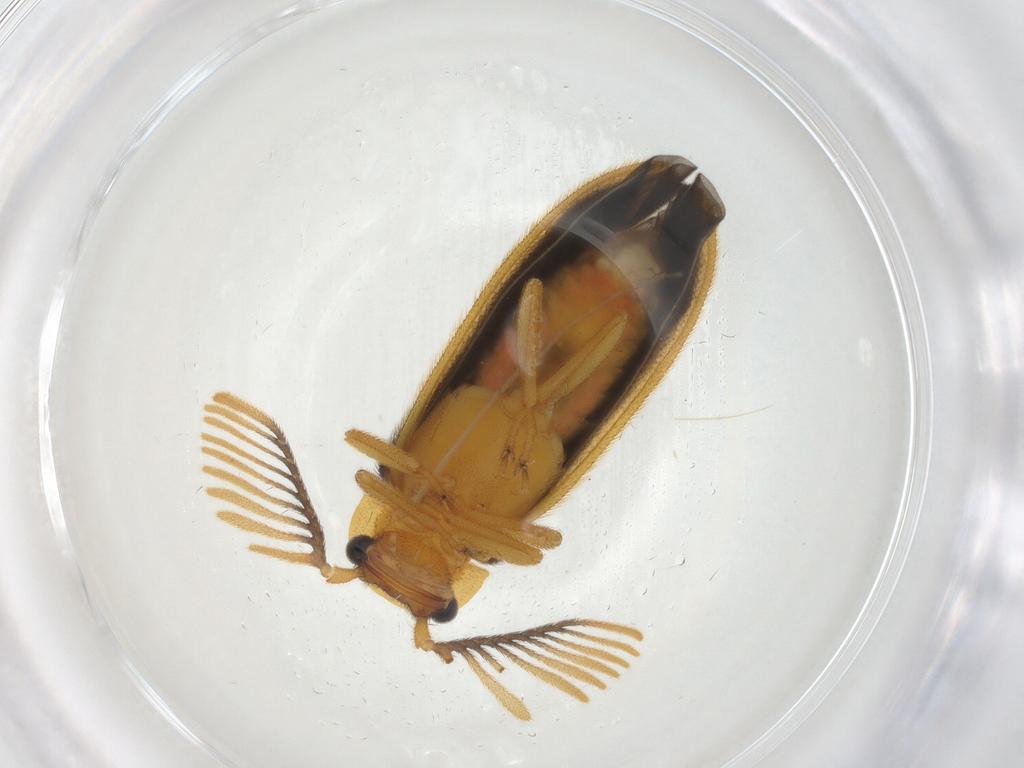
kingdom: Animalia
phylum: Arthropoda
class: Insecta
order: Coleoptera
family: Lampyridae
